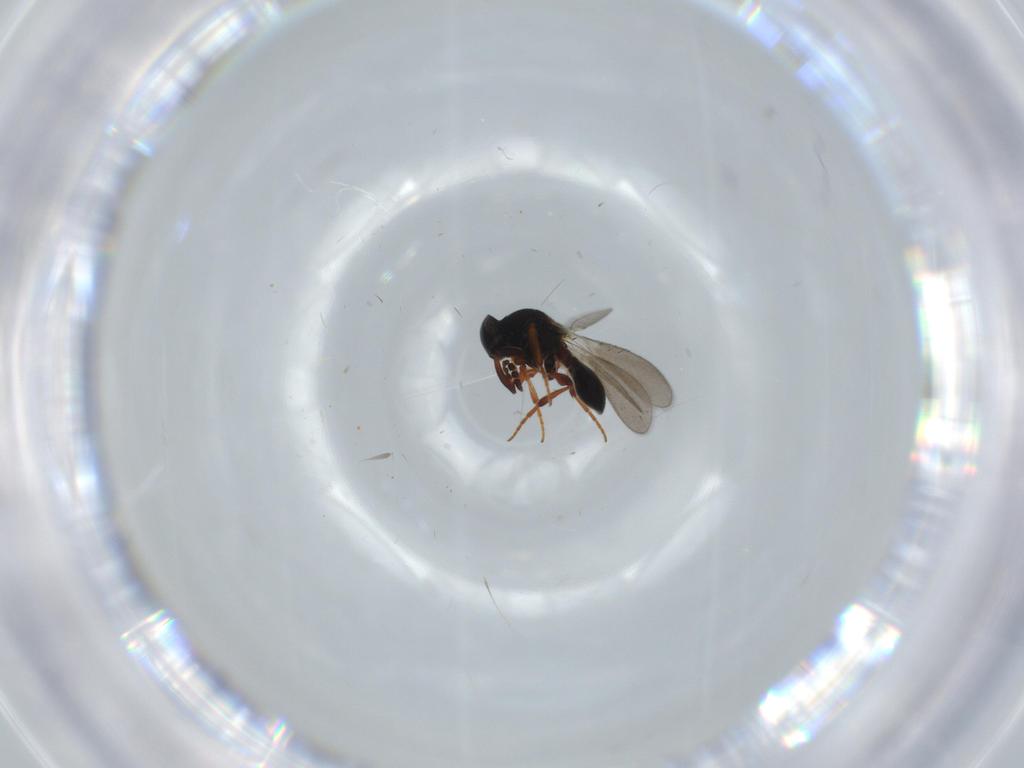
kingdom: Animalia
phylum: Arthropoda
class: Insecta
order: Hymenoptera
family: Platygastridae
